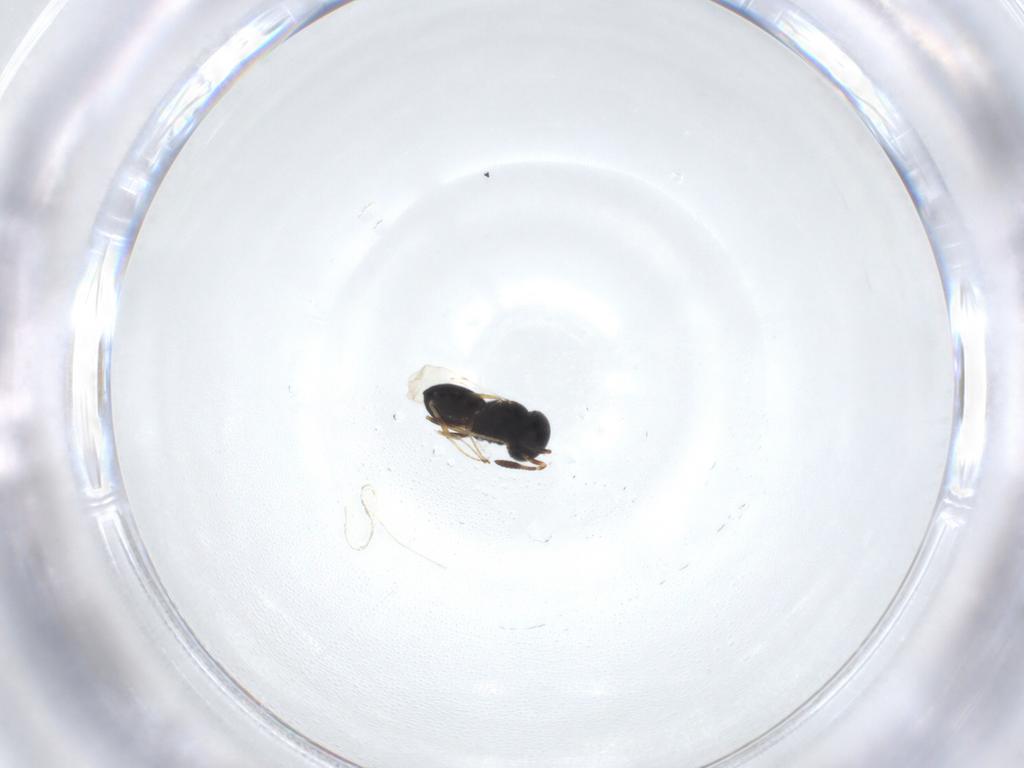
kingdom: Animalia
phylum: Arthropoda
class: Insecta
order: Hymenoptera
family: Scelionidae
